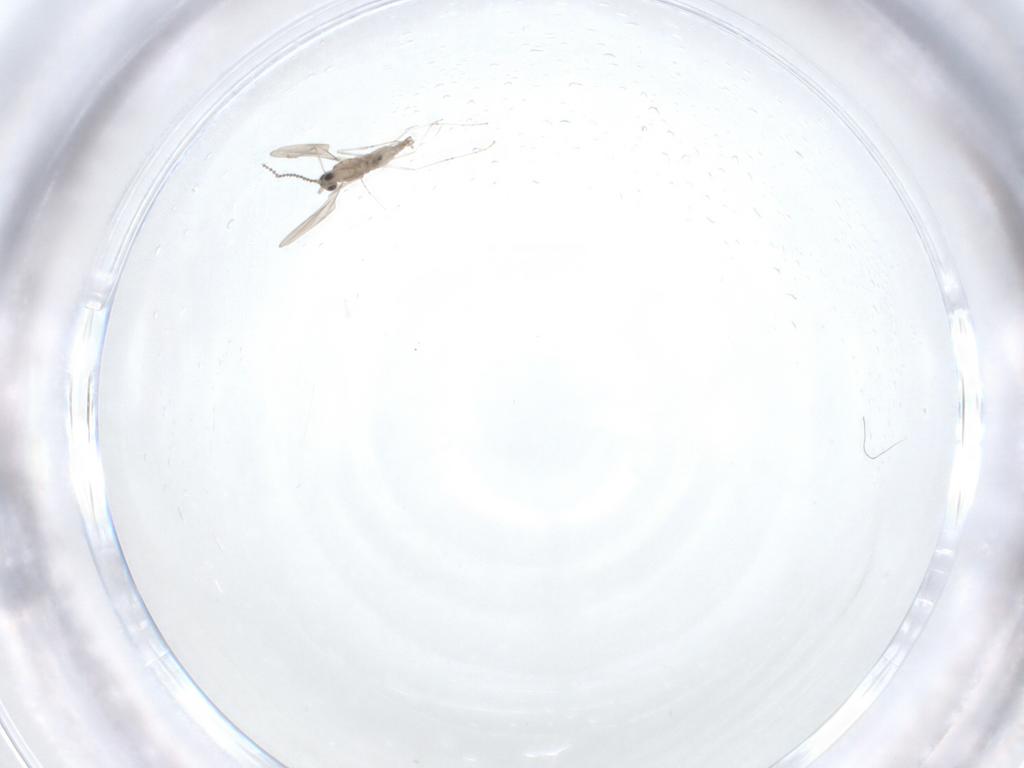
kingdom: Animalia
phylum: Arthropoda
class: Insecta
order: Diptera
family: Cecidomyiidae
